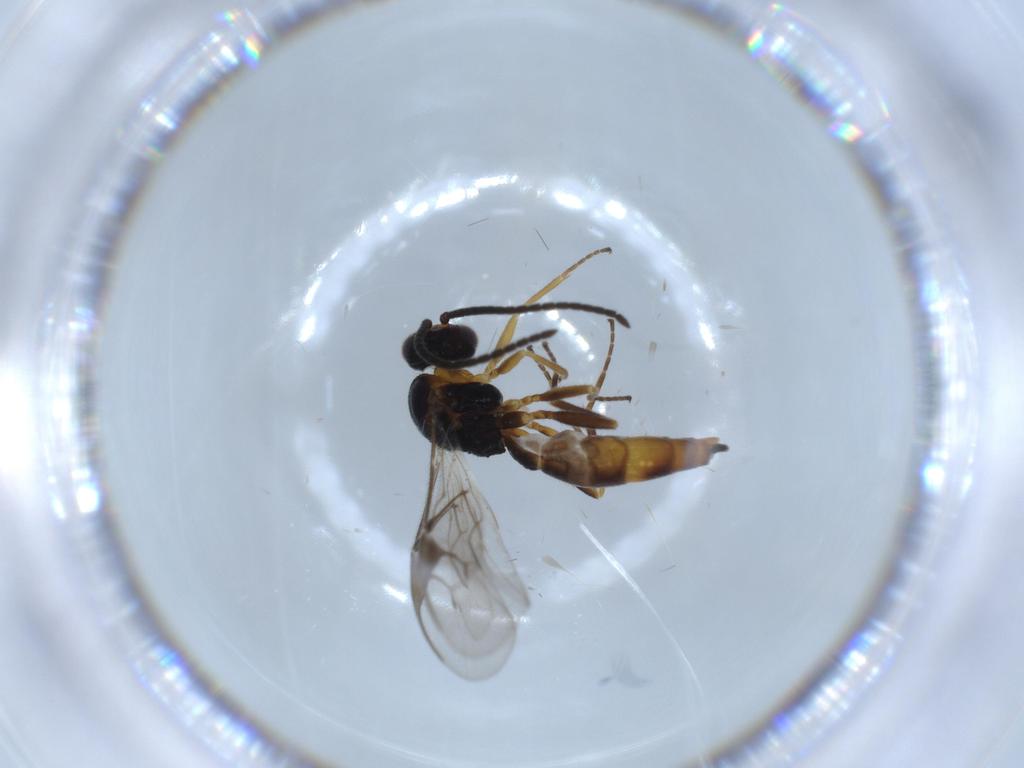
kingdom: Animalia
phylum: Arthropoda
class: Insecta
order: Hymenoptera
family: Braconidae
